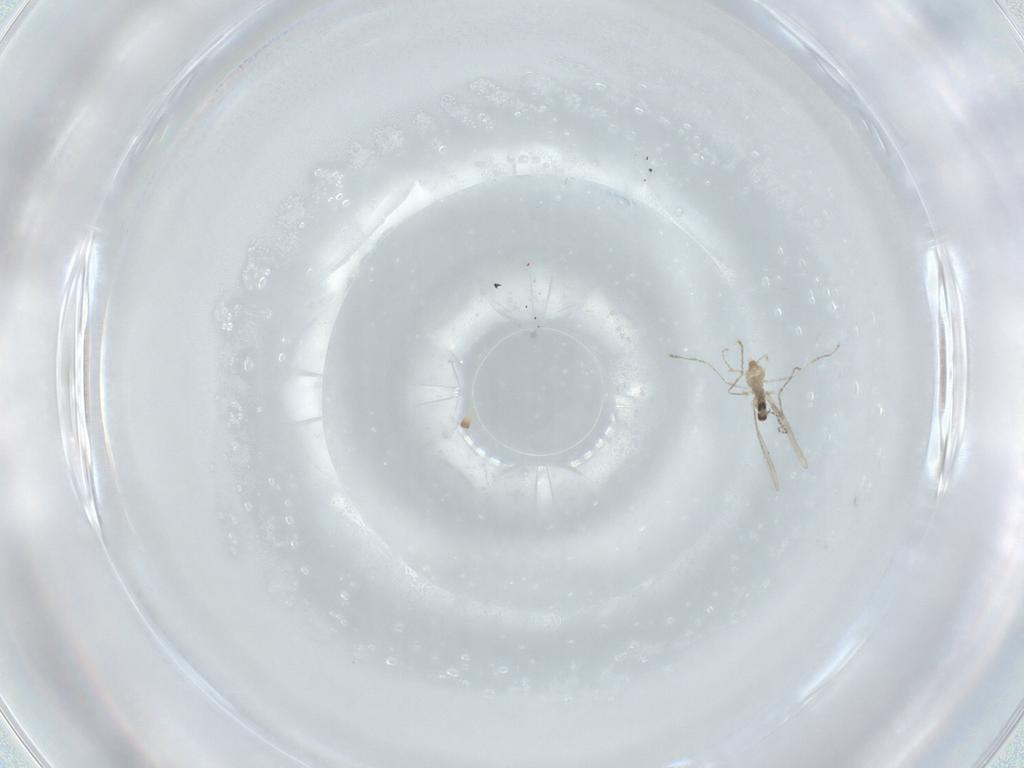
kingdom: Animalia
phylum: Arthropoda
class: Insecta
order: Diptera
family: Cecidomyiidae
